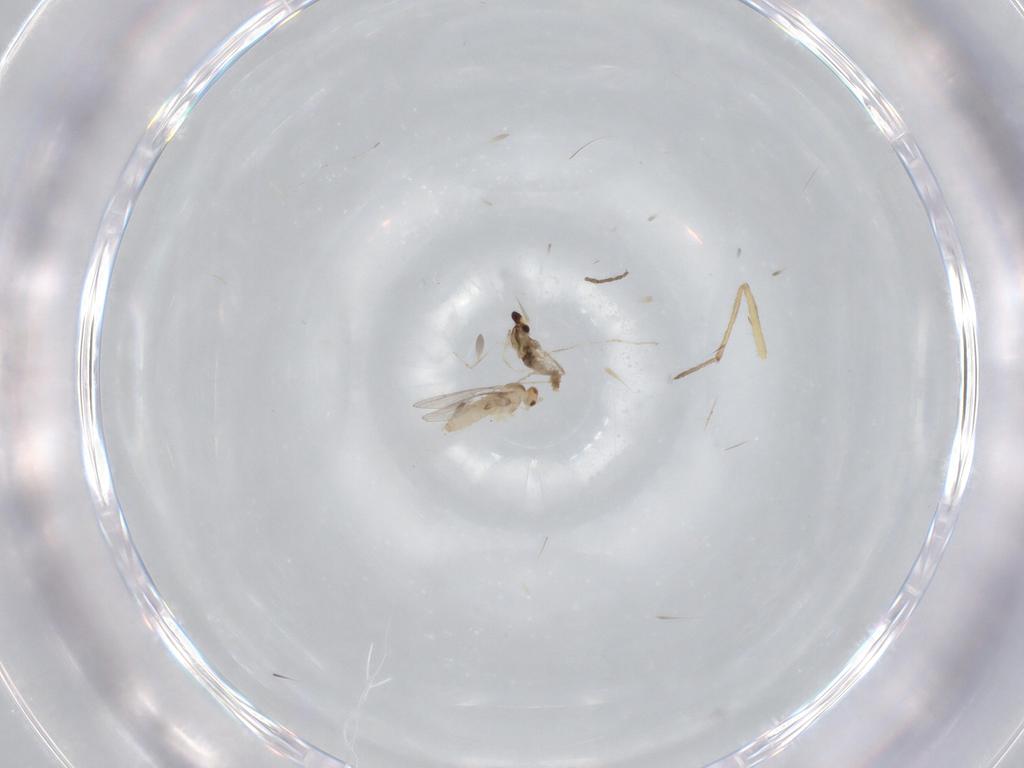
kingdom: Animalia
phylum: Arthropoda
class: Insecta
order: Diptera
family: Cecidomyiidae
